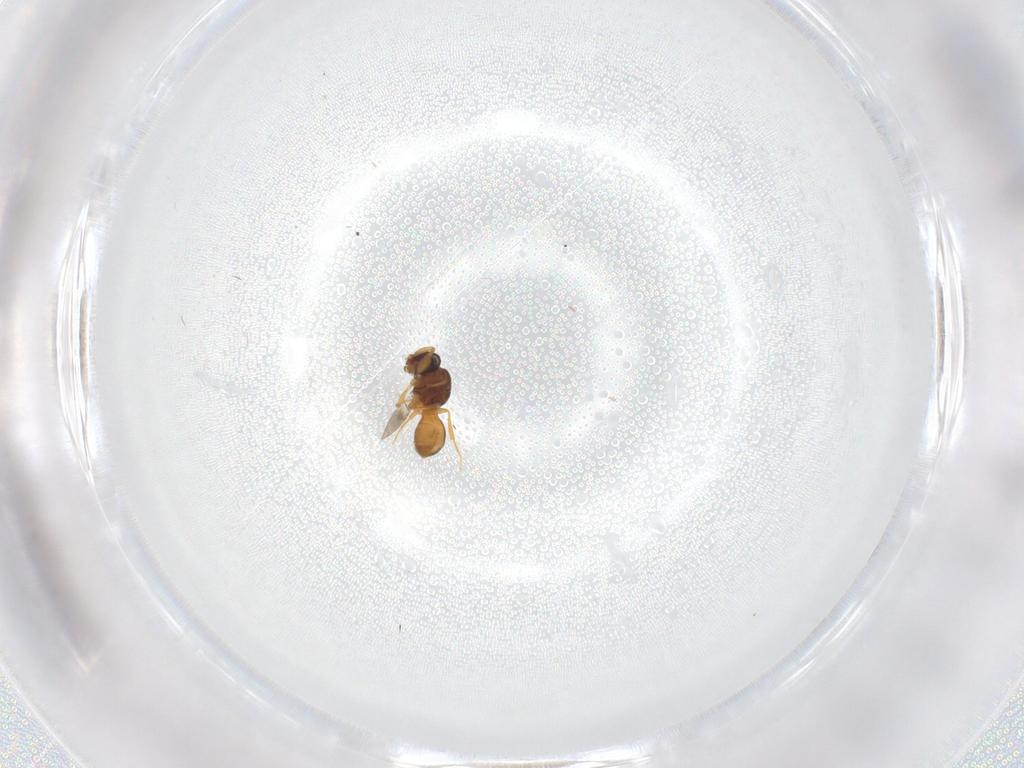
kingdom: Animalia
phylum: Arthropoda
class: Insecta
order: Hymenoptera
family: Scelionidae
